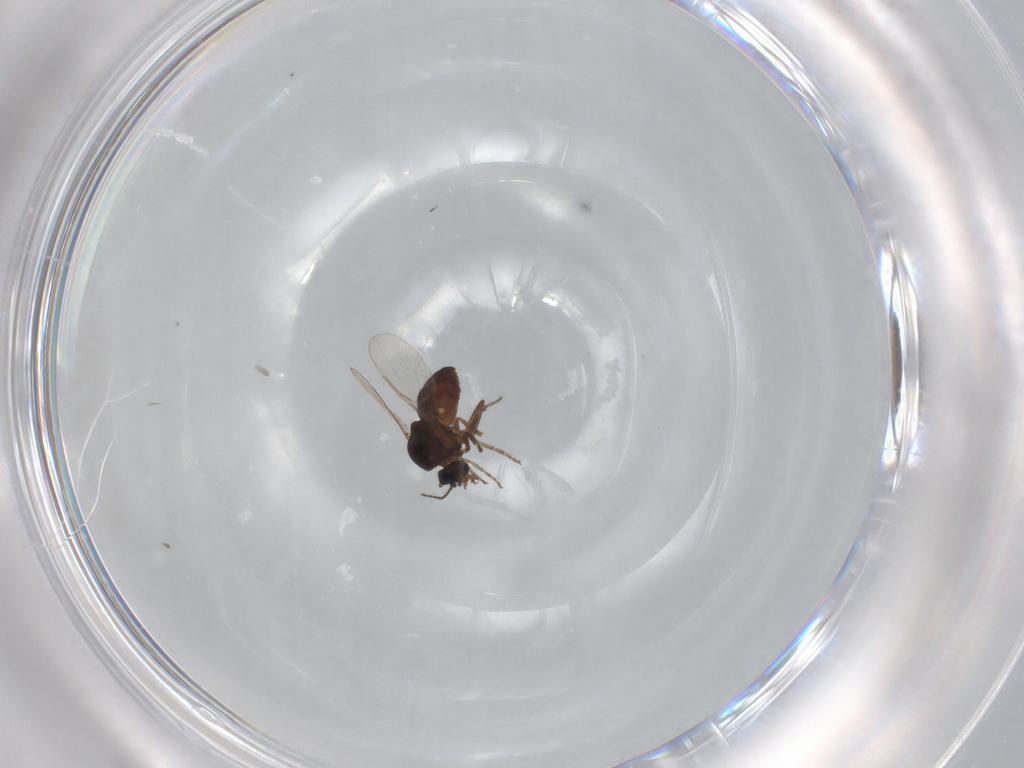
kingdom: Animalia
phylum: Arthropoda
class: Insecta
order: Diptera
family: Ceratopogonidae
